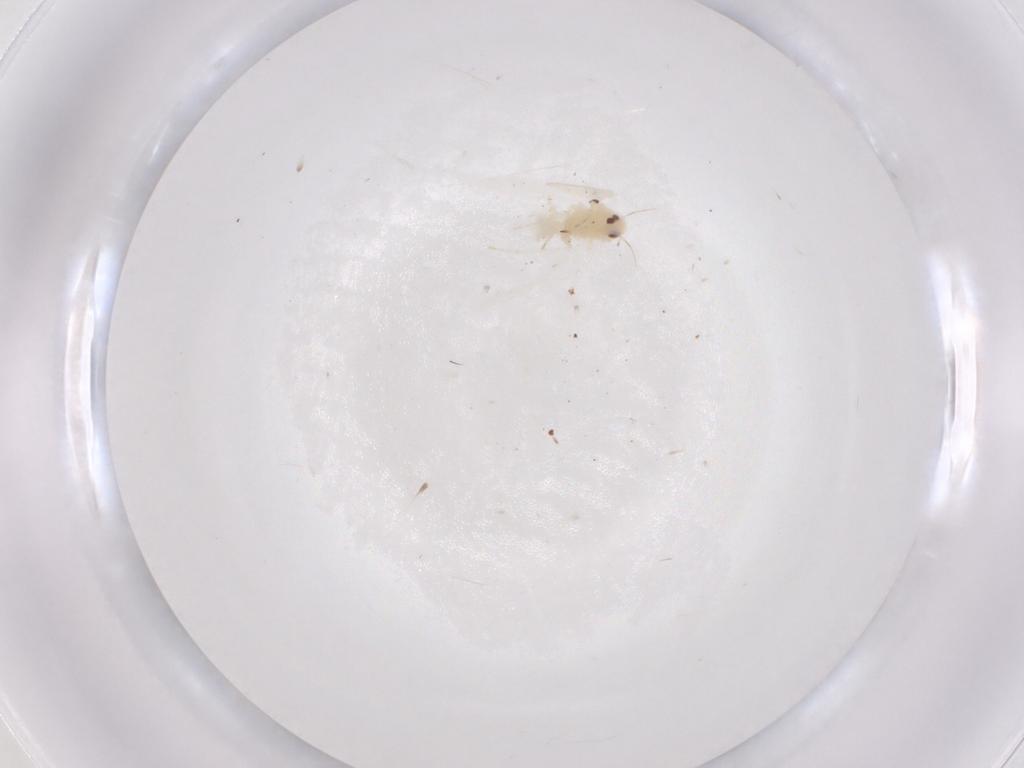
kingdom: Animalia
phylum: Arthropoda
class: Insecta
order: Hemiptera
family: Aleyrodidae
